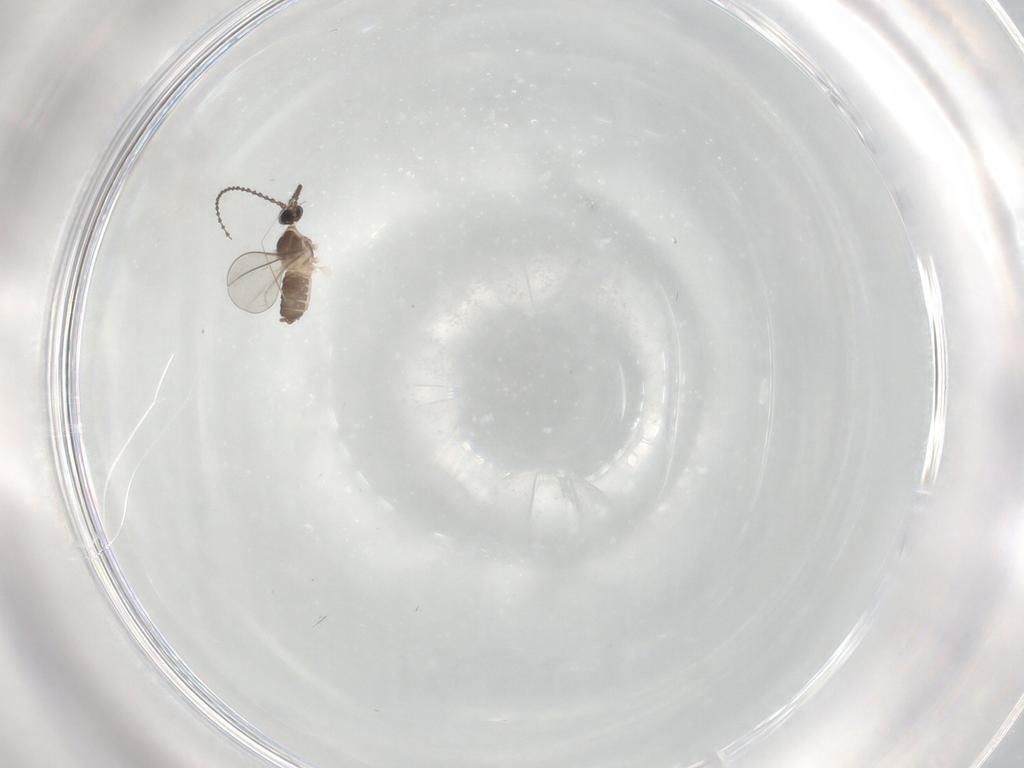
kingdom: Animalia
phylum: Arthropoda
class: Insecta
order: Diptera
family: Cecidomyiidae
